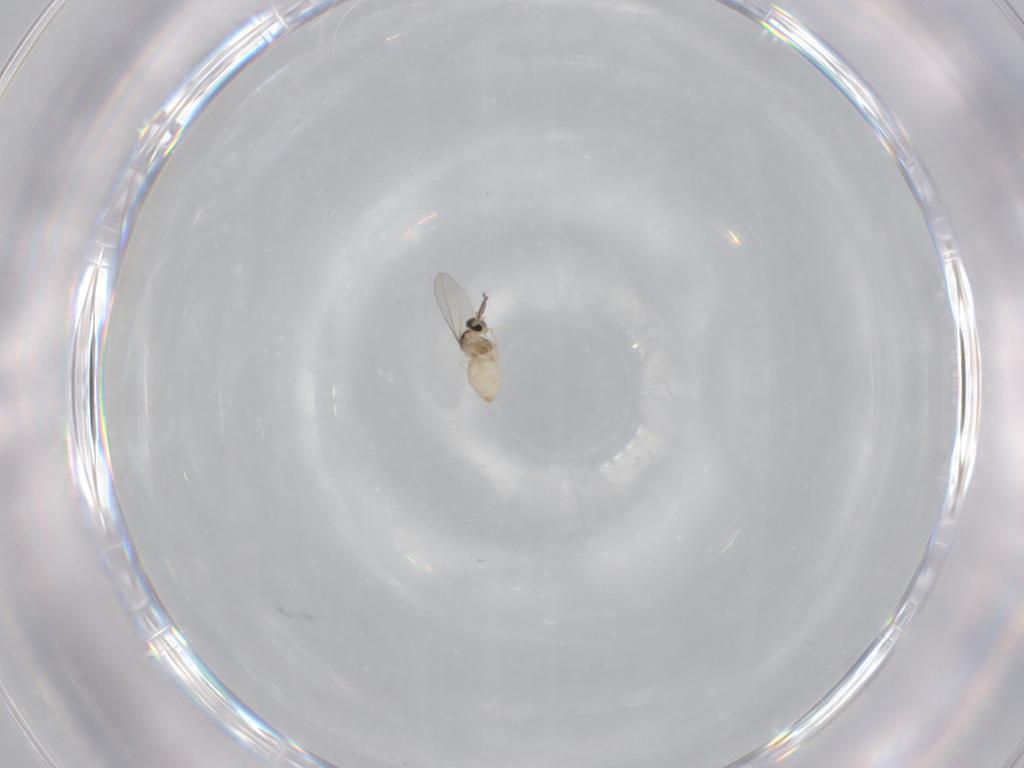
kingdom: Animalia
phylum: Arthropoda
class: Insecta
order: Diptera
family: Cecidomyiidae
